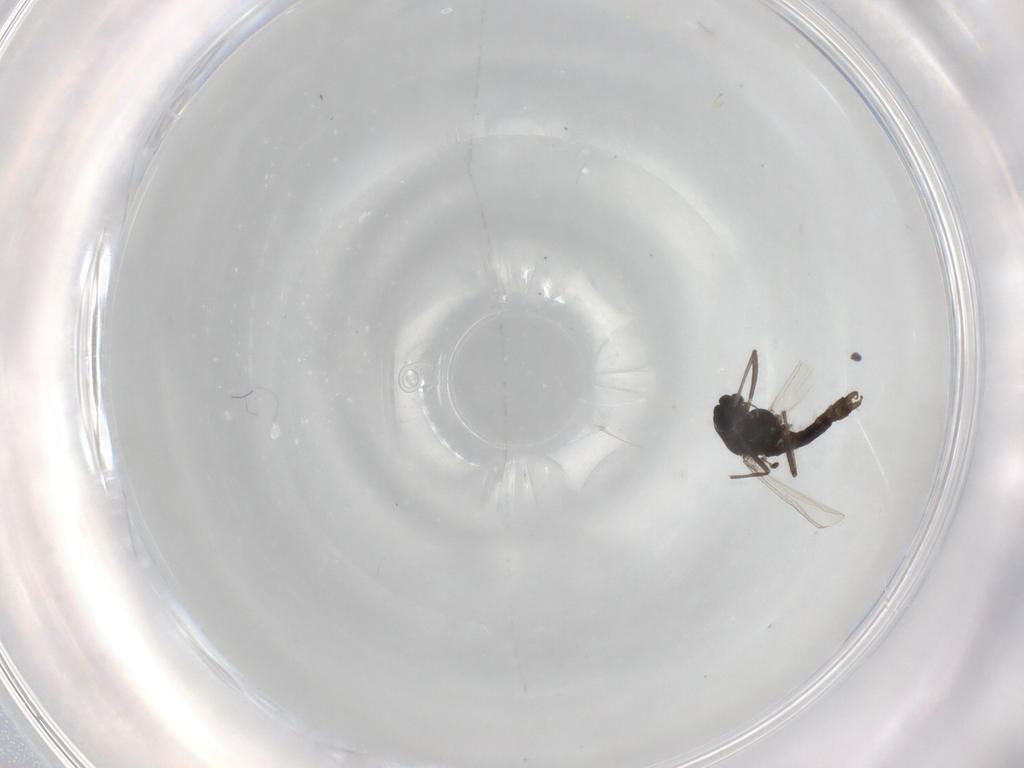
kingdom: Animalia
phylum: Arthropoda
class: Insecta
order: Diptera
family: Chironomidae
